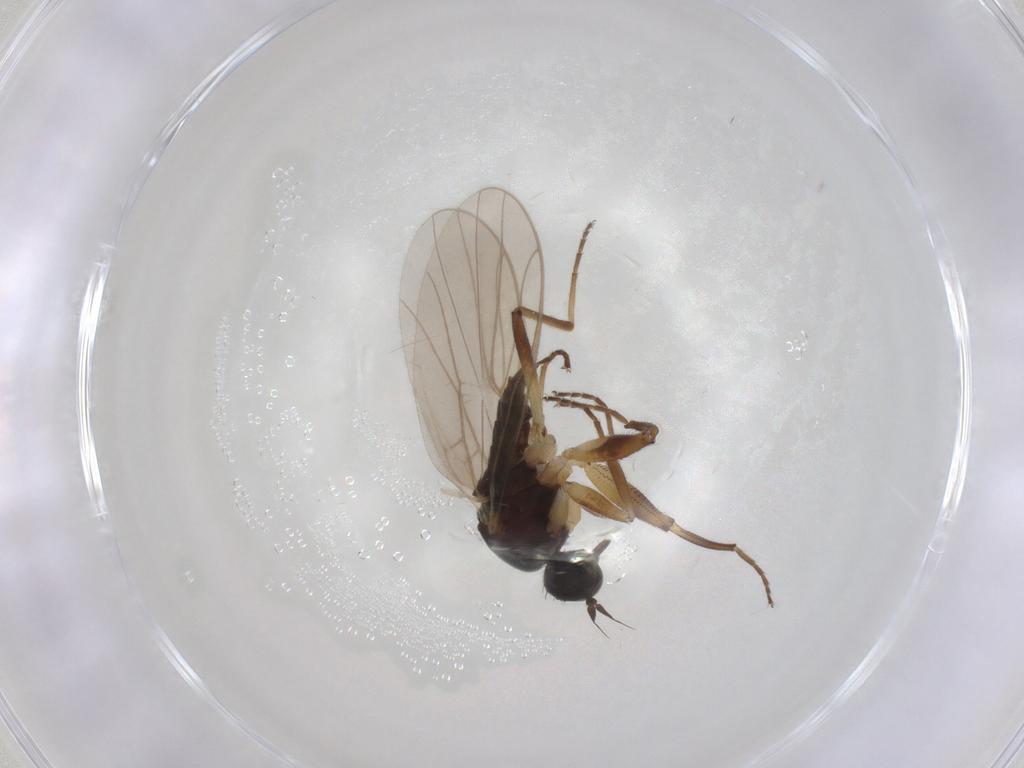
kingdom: Animalia
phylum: Arthropoda
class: Insecta
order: Diptera
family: Hybotidae
